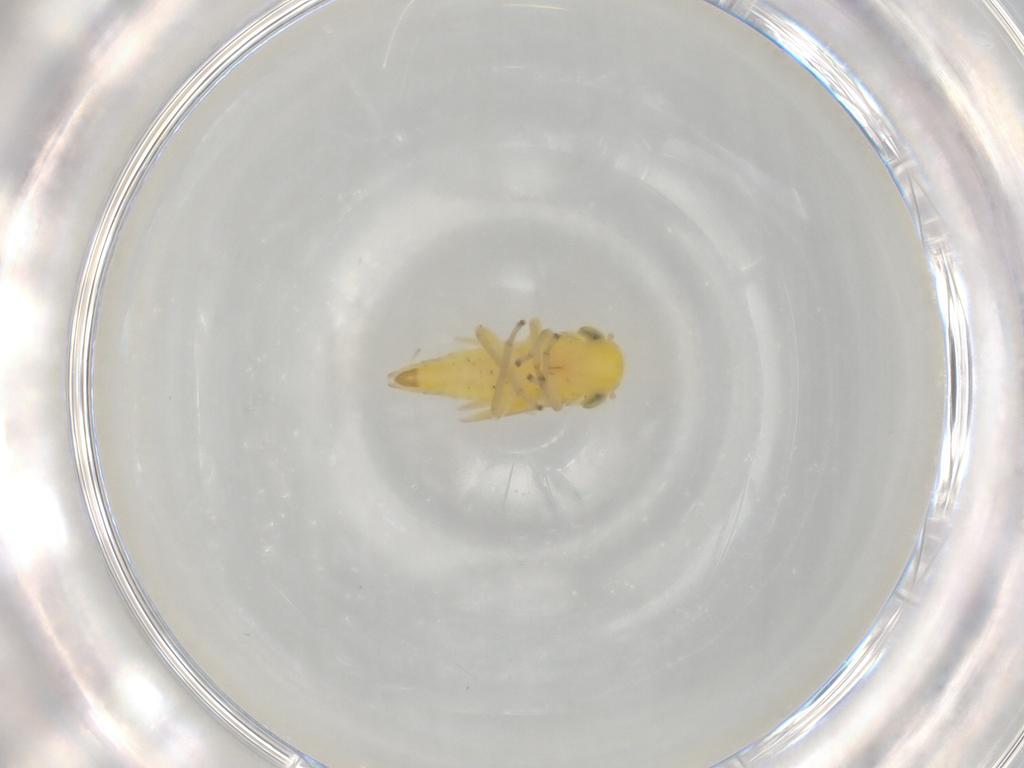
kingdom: Animalia
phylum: Arthropoda
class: Insecta
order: Hemiptera
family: Cicadellidae
